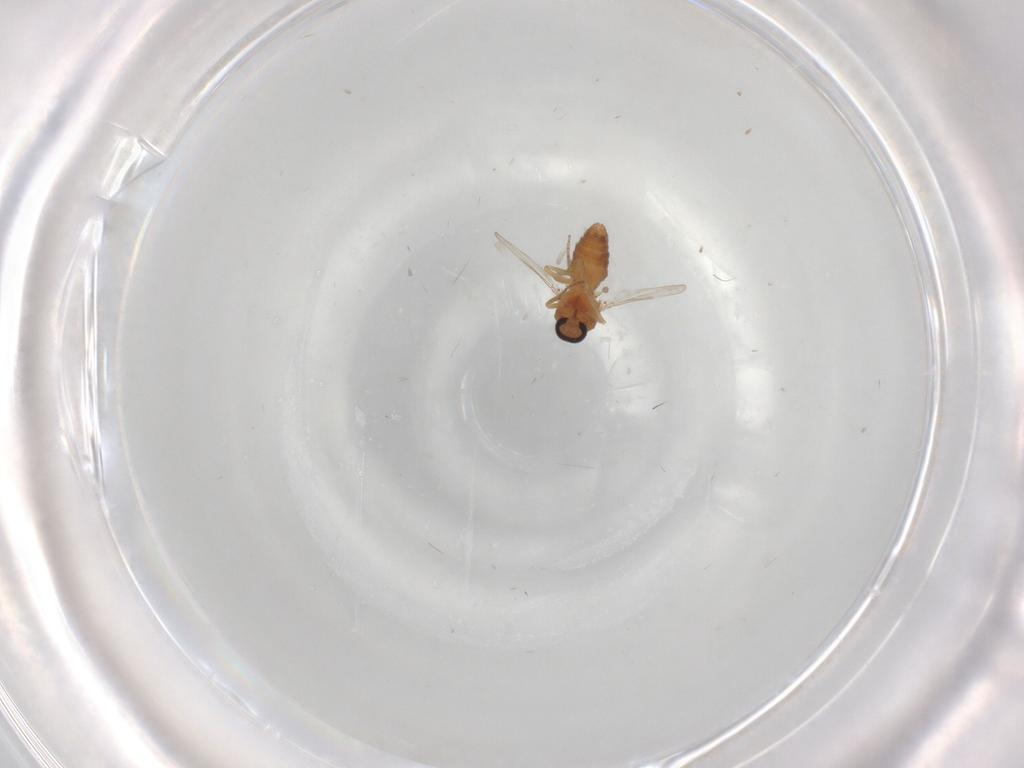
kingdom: Animalia
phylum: Arthropoda
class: Insecta
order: Diptera
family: Ceratopogonidae
